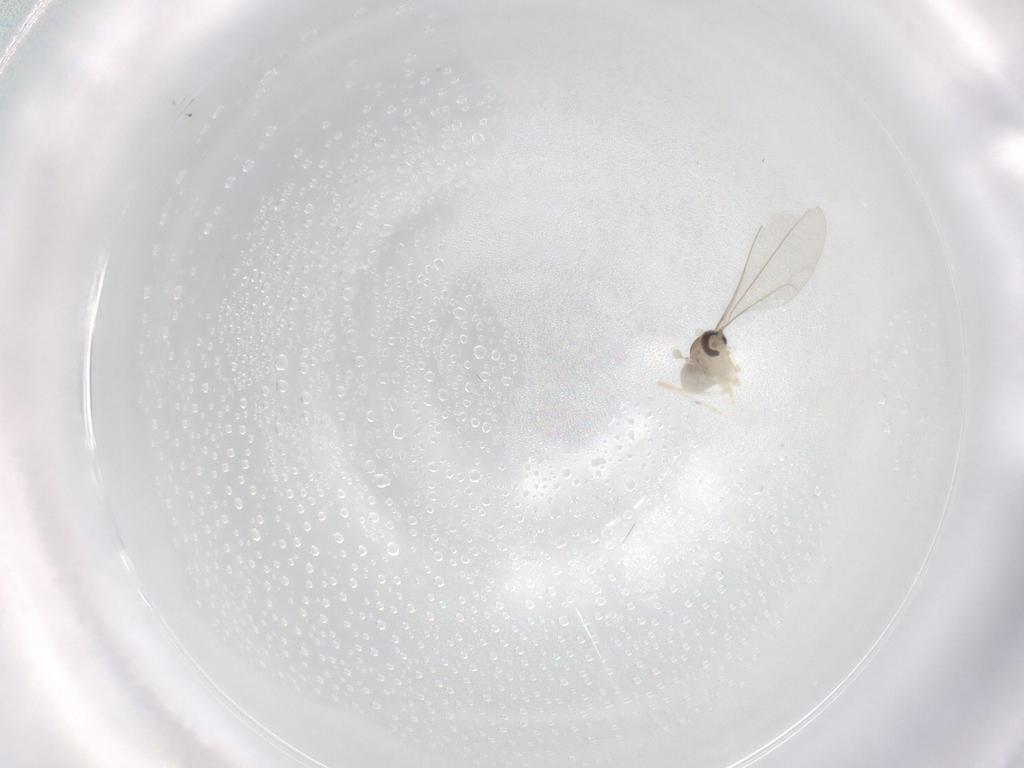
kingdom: Animalia
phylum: Arthropoda
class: Insecta
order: Diptera
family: Cecidomyiidae
